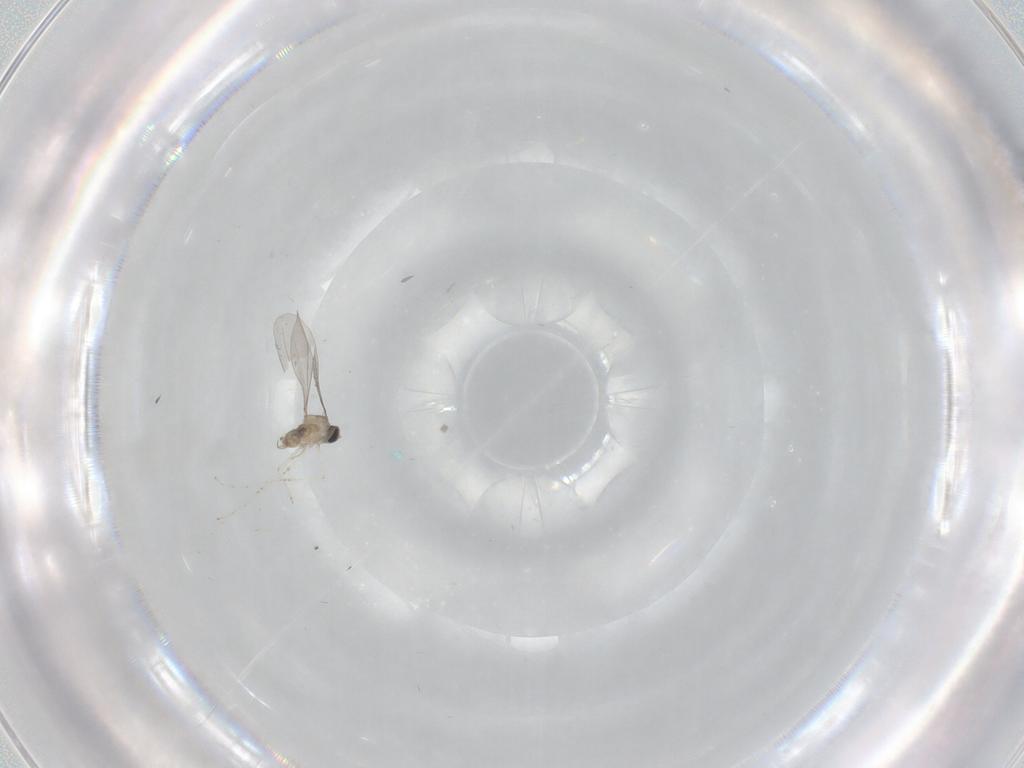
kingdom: Animalia
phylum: Arthropoda
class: Insecta
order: Diptera
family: Cecidomyiidae
